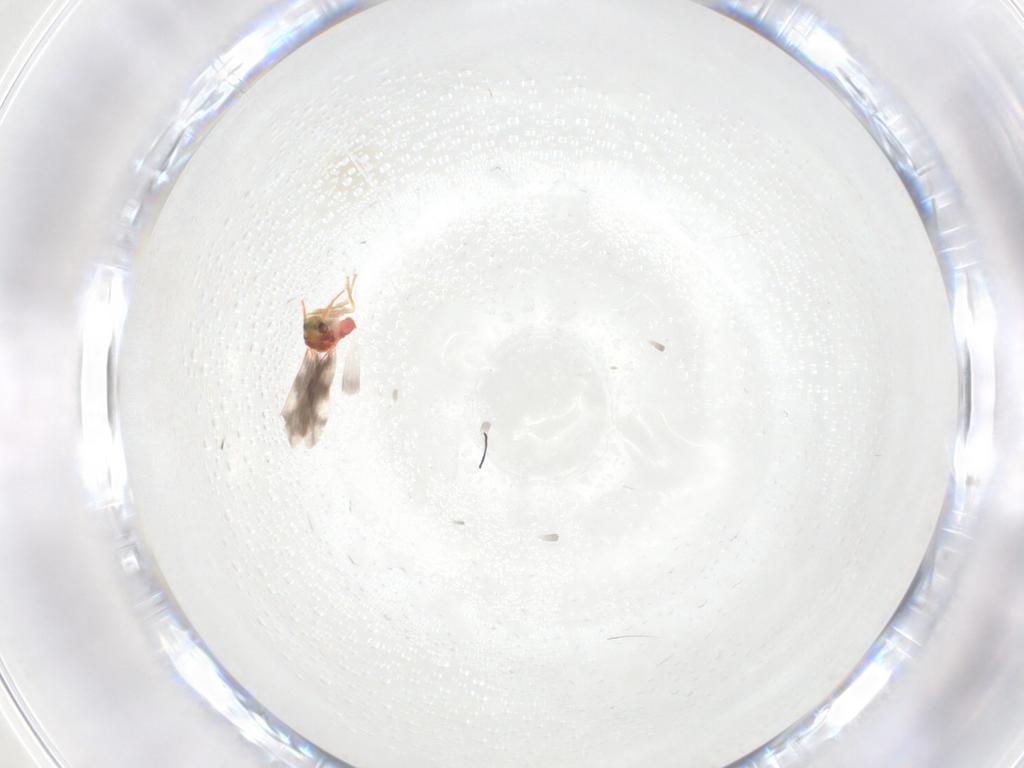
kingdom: Animalia
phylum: Arthropoda
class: Insecta
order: Hemiptera
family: Aleyrodidae
